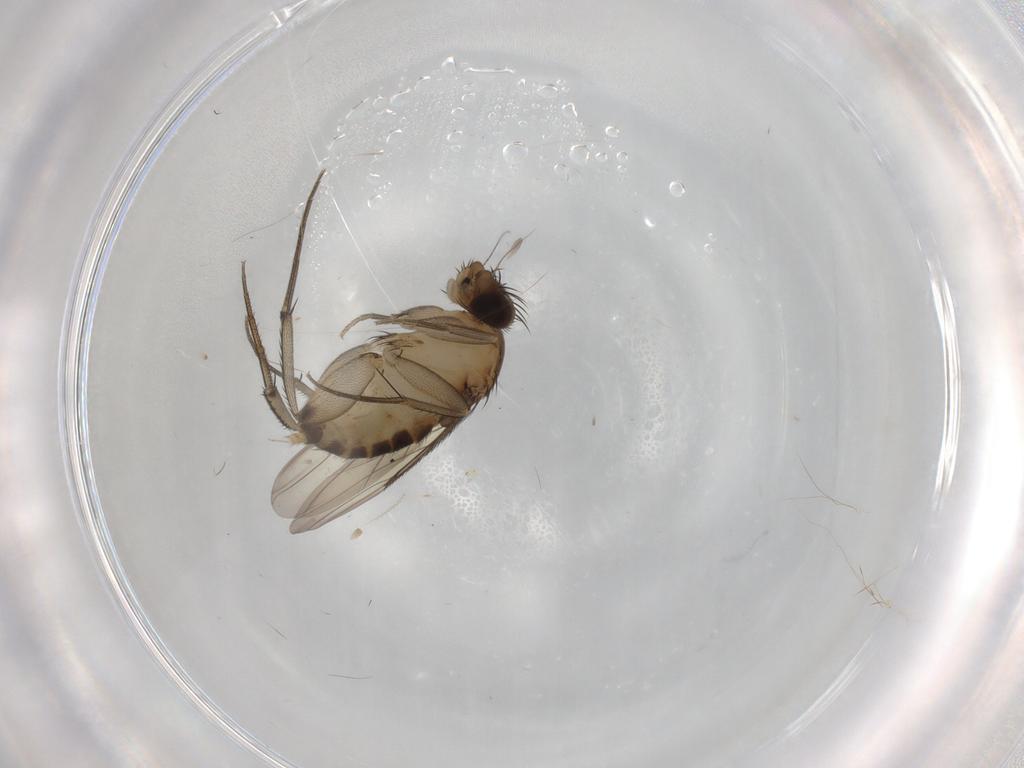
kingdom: Animalia
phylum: Arthropoda
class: Insecta
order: Diptera
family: Phoridae
